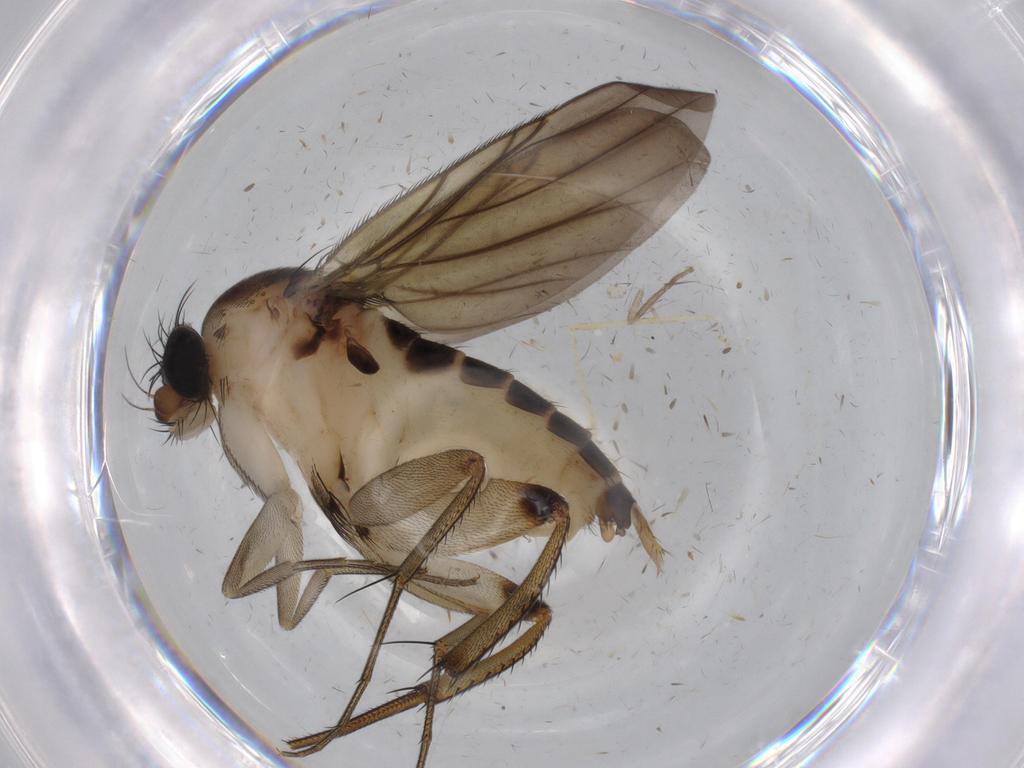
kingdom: Animalia
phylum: Arthropoda
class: Insecta
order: Diptera
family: Phoridae
